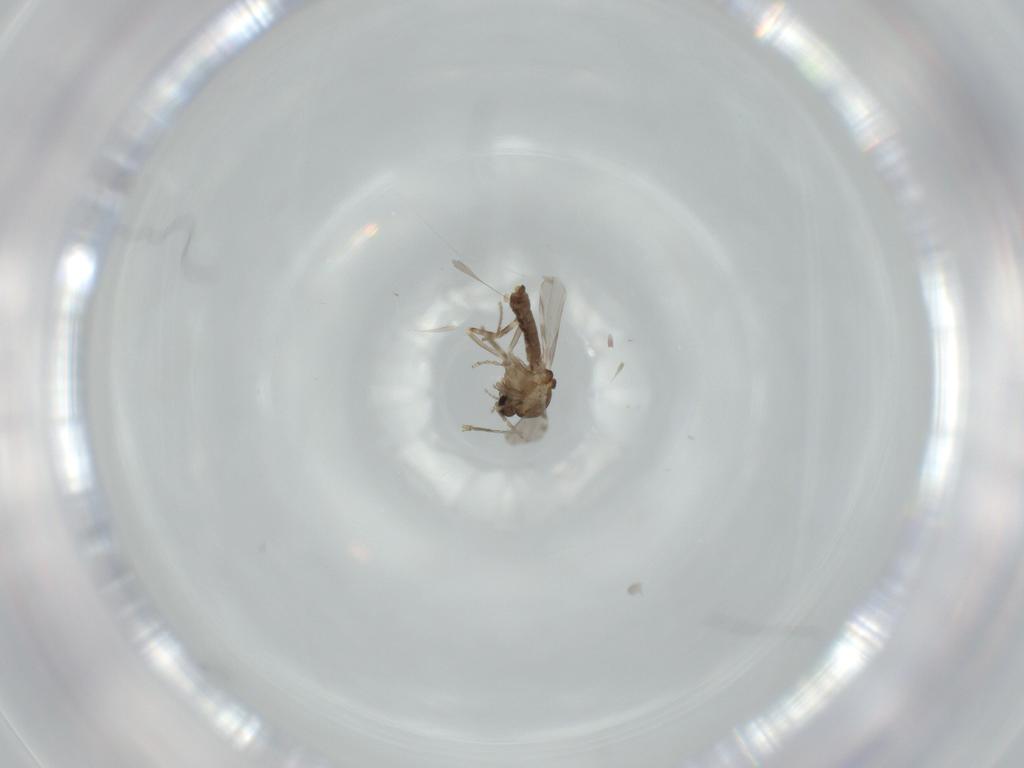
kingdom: Animalia
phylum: Arthropoda
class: Insecta
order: Diptera
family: Ceratopogonidae
